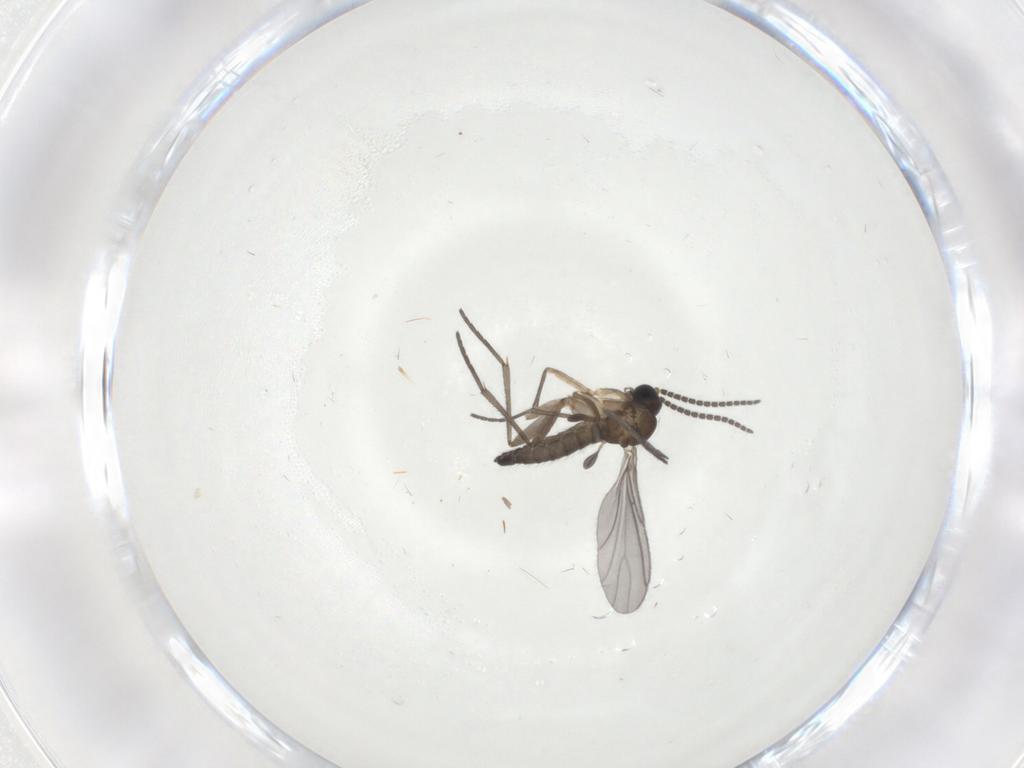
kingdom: Animalia
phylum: Arthropoda
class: Insecta
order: Diptera
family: Sciaridae
